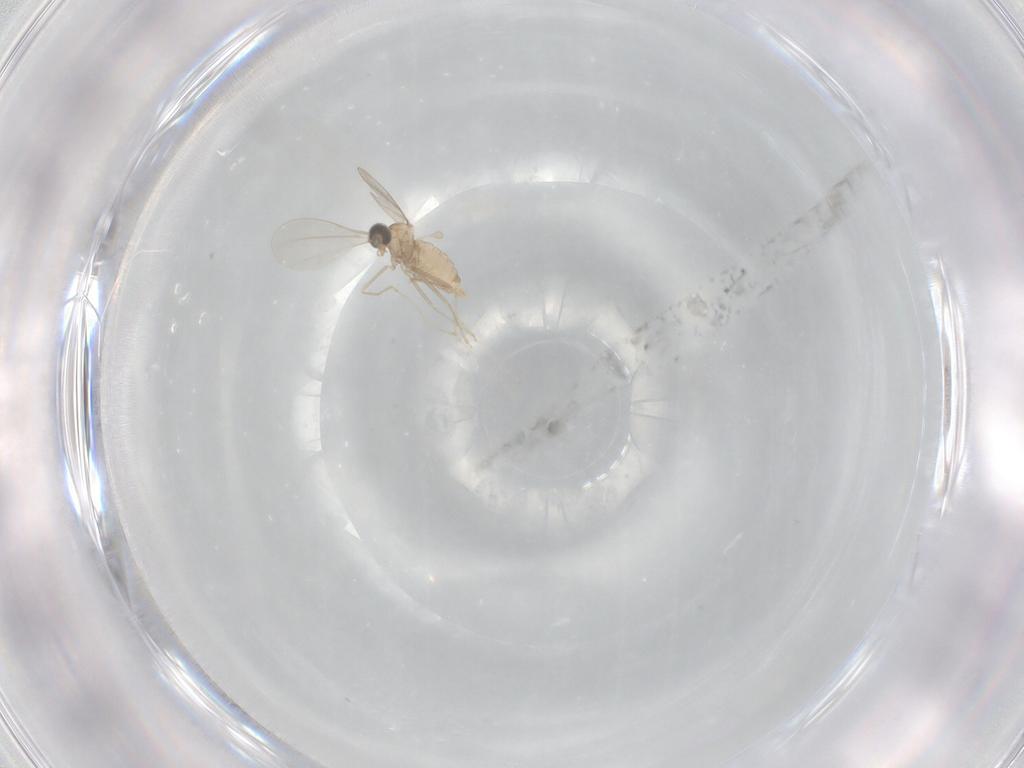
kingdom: Animalia
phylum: Arthropoda
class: Insecta
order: Diptera
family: Cecidomyiidae
